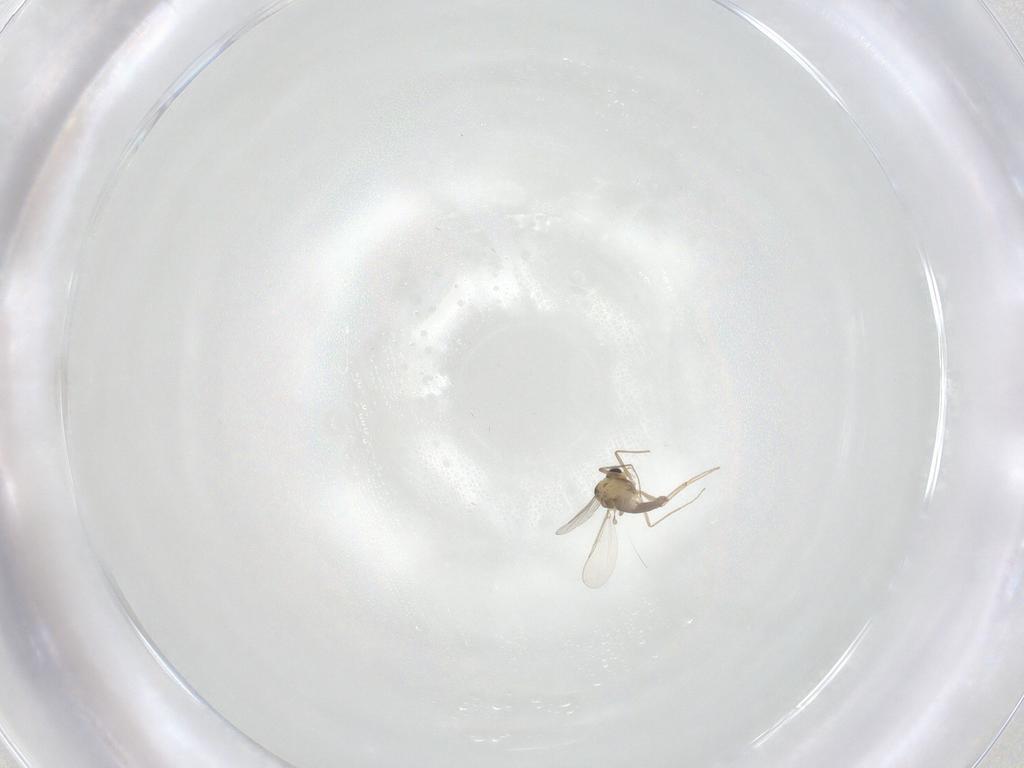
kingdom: Animalia
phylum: Arthropoda
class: Insecta
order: Diptera
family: Chironomidae
